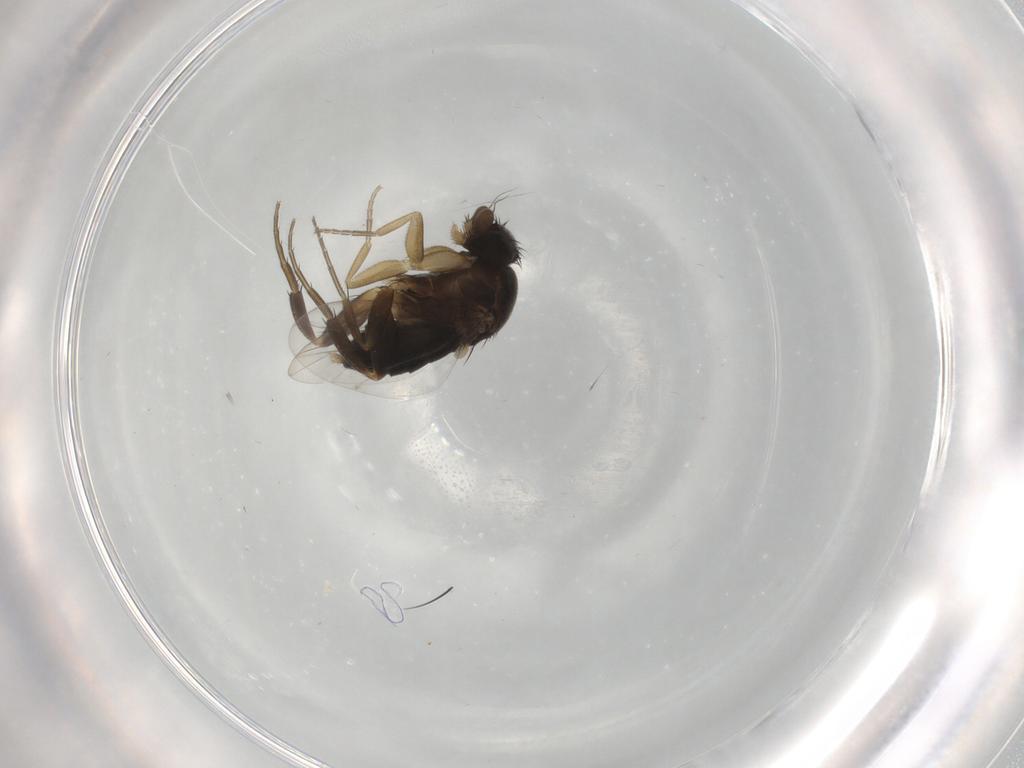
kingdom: Animalia
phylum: Arthropoda
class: Insecta
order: Diptera
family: Phoridae
